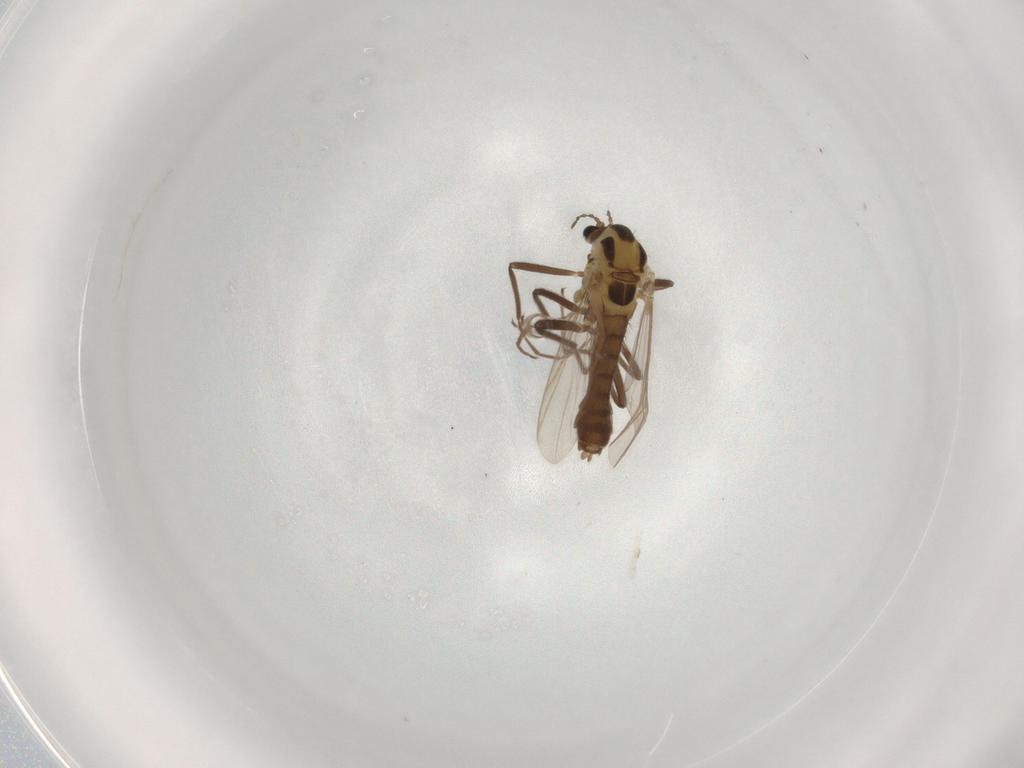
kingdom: Animalia
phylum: Arthropoda
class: Insecta
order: Diptera
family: Chironomidae
